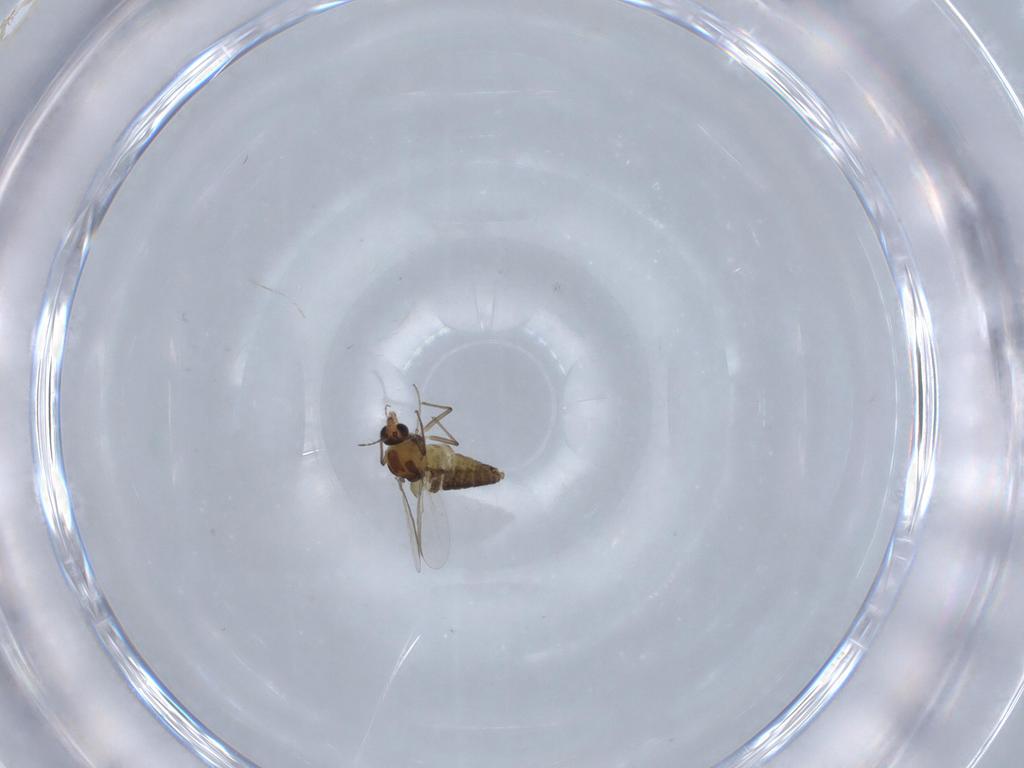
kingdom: Animalia
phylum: Arthropoda
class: Insecta
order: Diptera
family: Chironomidae
